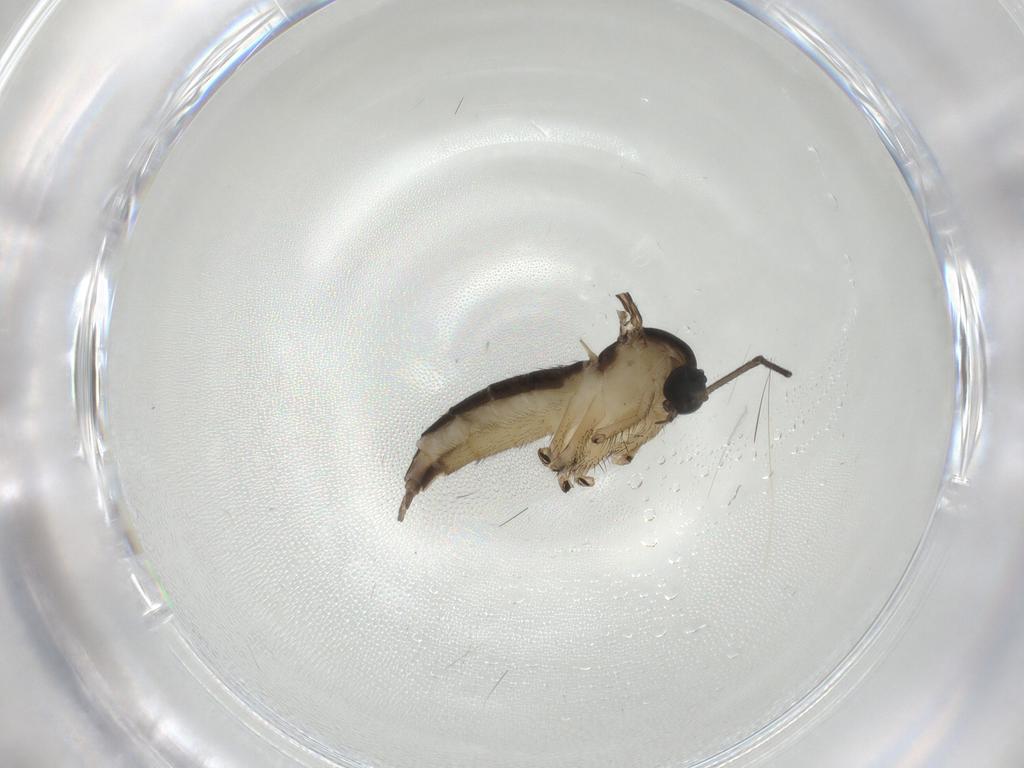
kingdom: Animalia
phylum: Arthropoda
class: Insecta
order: Diptera
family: Sciaridae
